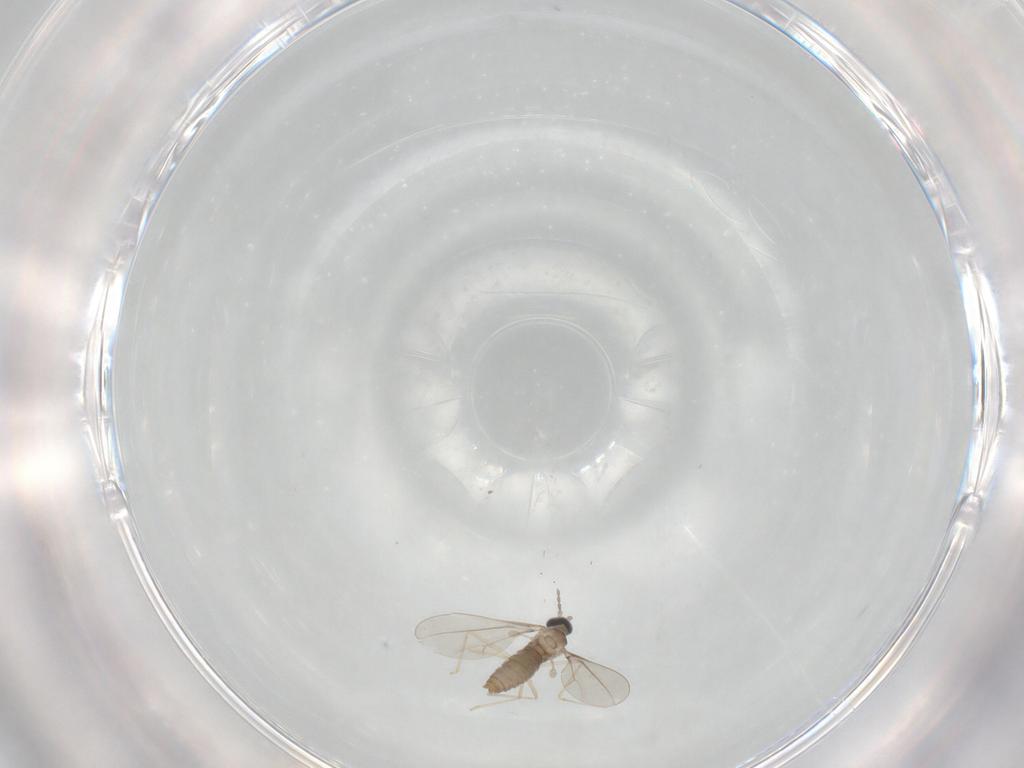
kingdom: Animalia
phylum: Arthropoda
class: Insecta
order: Diptera
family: Cecidomyiidae
